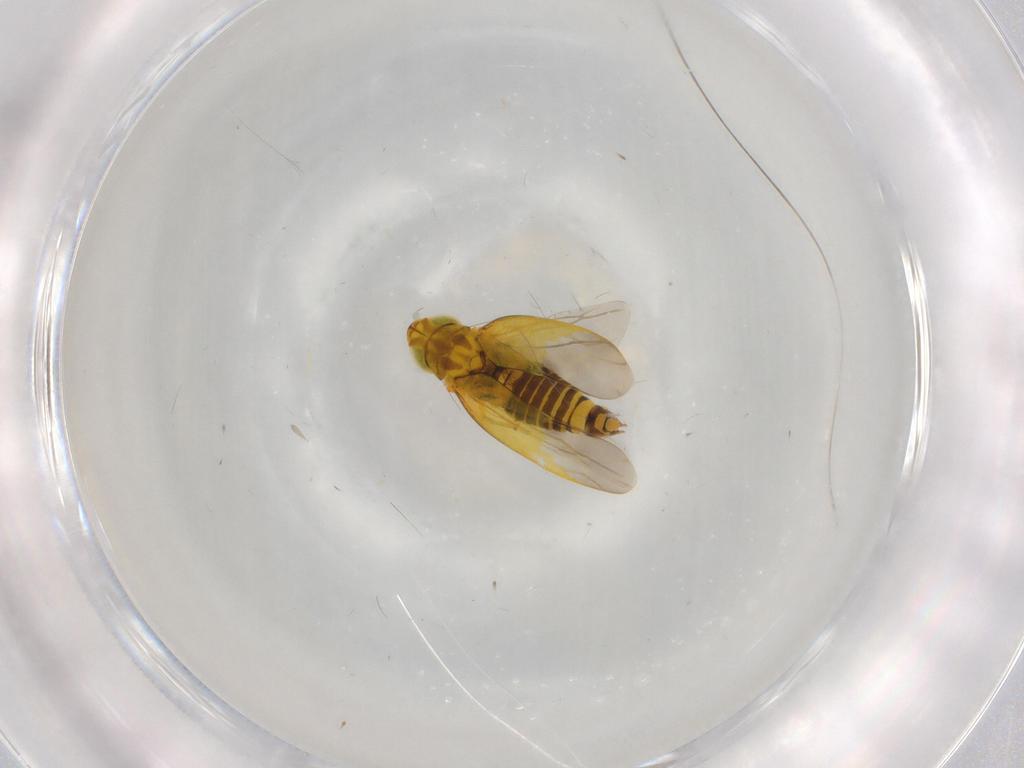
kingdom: Animalia
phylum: Arthropoda
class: Insecta
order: Hemiptera
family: Cicadellidae
